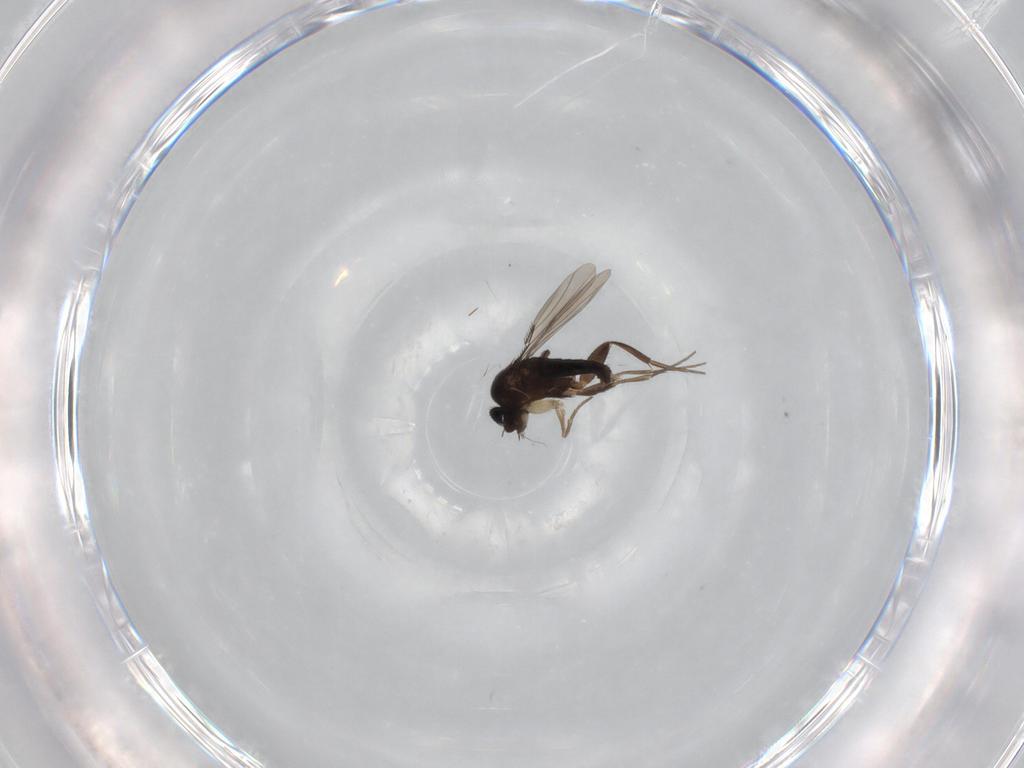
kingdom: Animalia
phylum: Arthropoda
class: Insecta
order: Diptera
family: Phoridae
